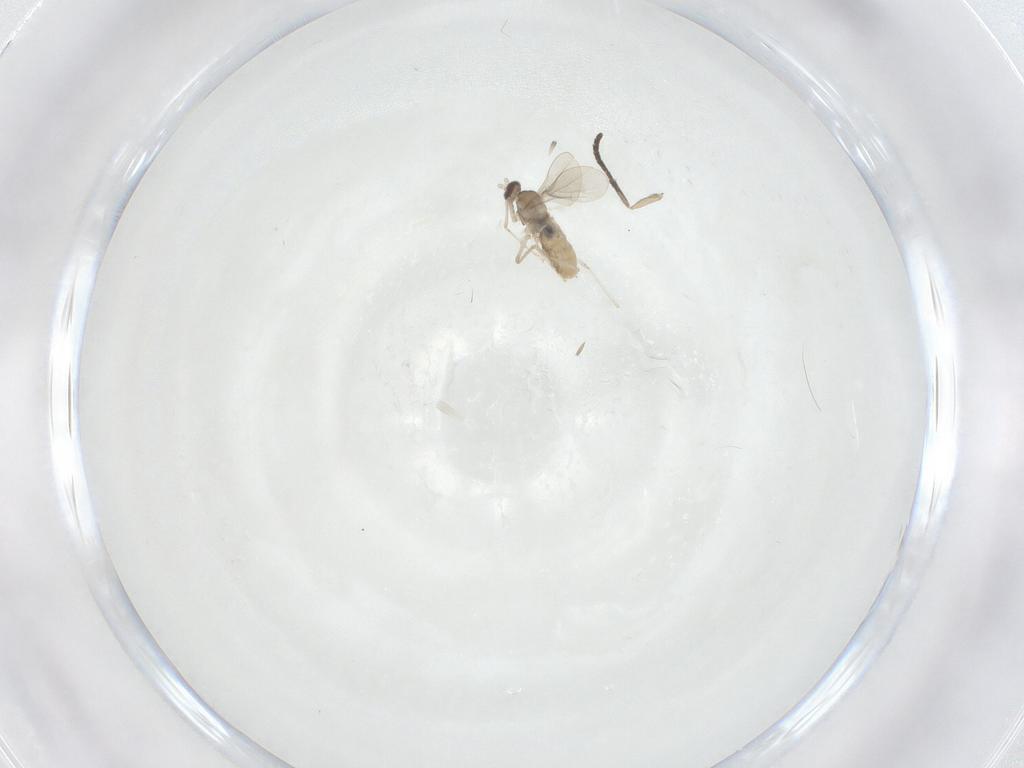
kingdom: Animalia
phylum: Arthropoda
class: Insecta
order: Diptera
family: Cecidomyiidae
